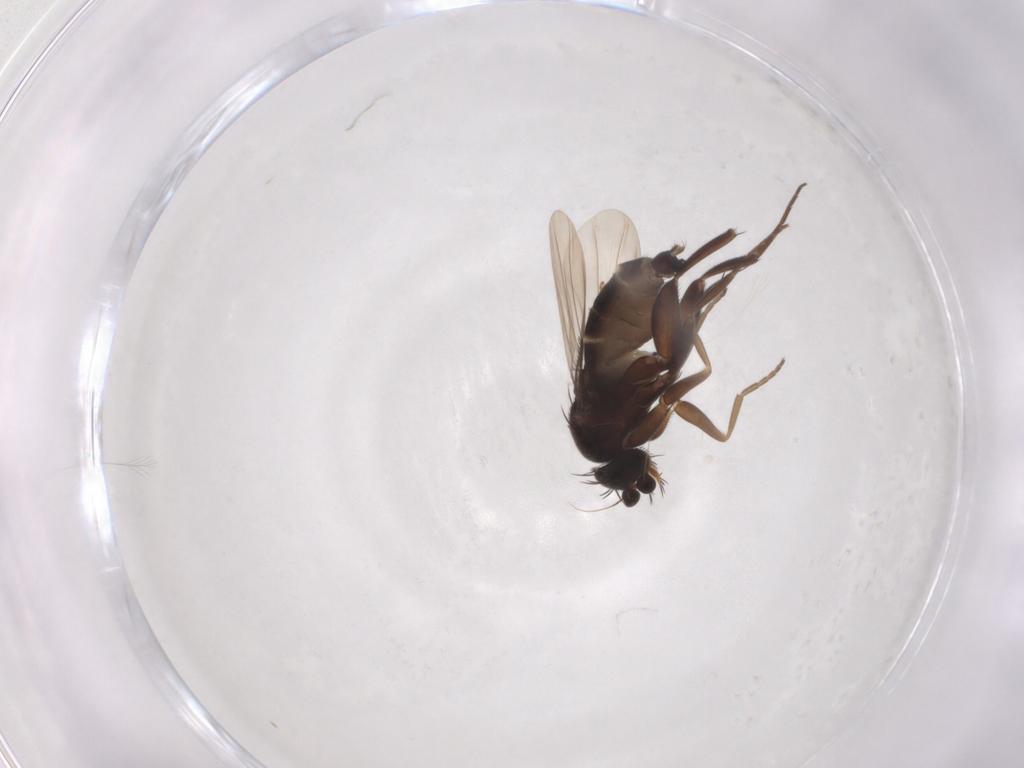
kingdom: Animalia
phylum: Arthropoda
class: Insecta
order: Diptera
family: Phoridae
